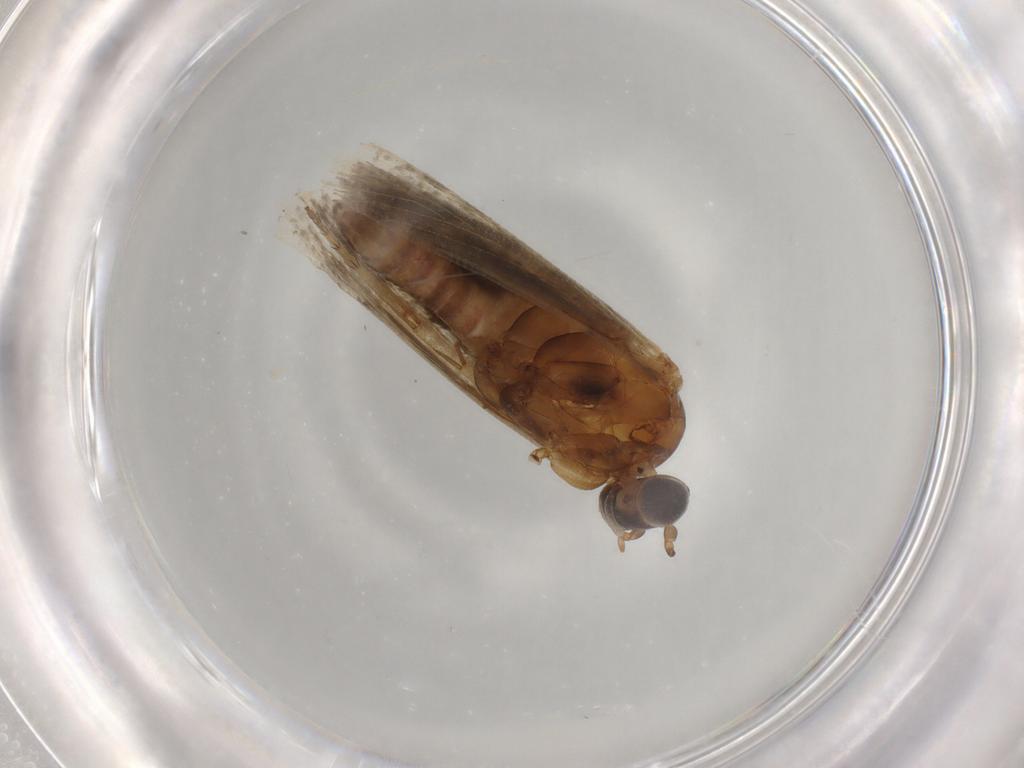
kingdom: Animalia
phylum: Arthropoda
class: Insecta
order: Lepidoptera
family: Tortricidae
